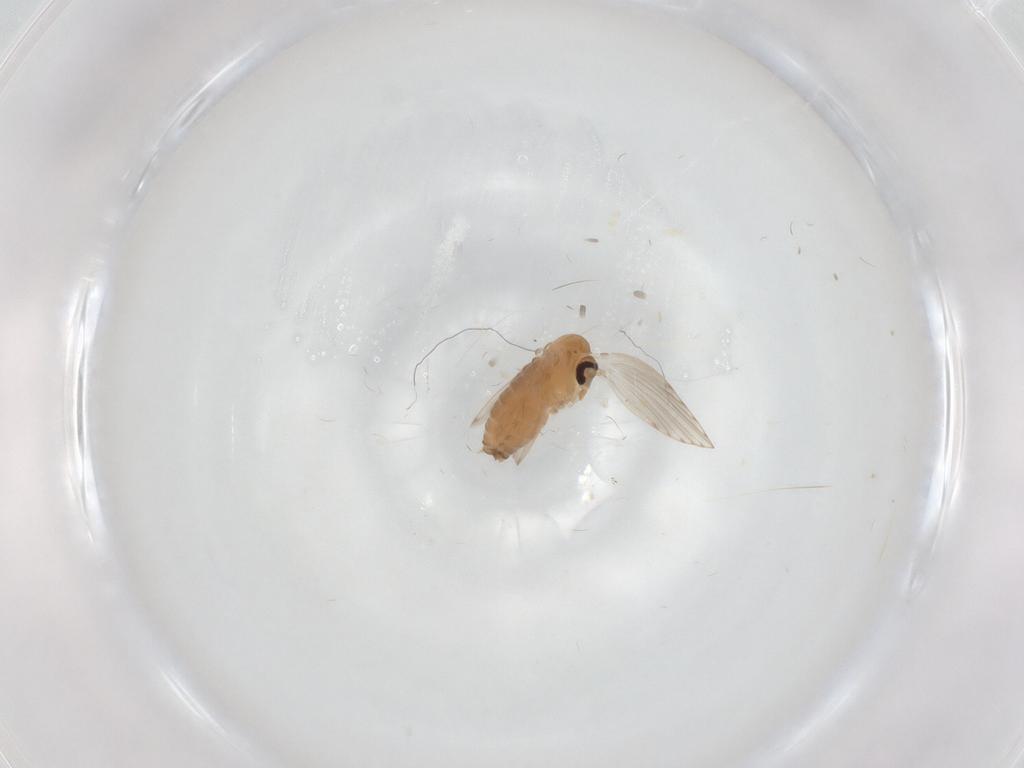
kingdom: Animalia
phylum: Arthropoda
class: Insecta
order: Diptera
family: Psychodidae
